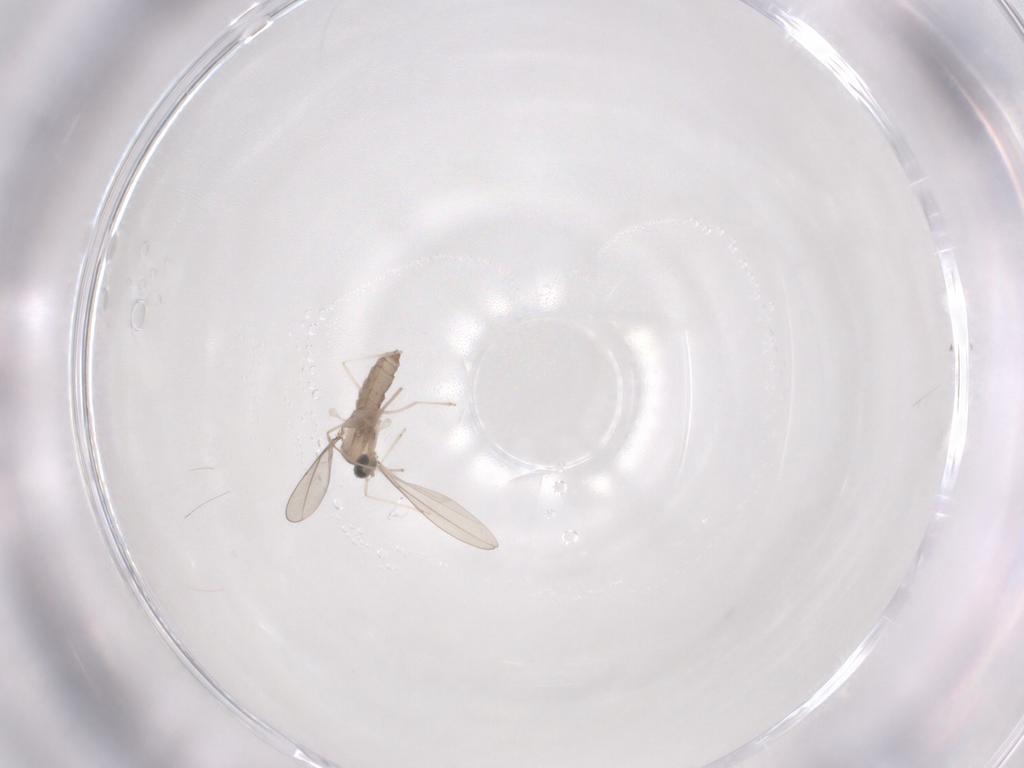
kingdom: Animalia
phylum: Arthropoda
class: Insecta
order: Diptera
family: Cecidomyiidae
